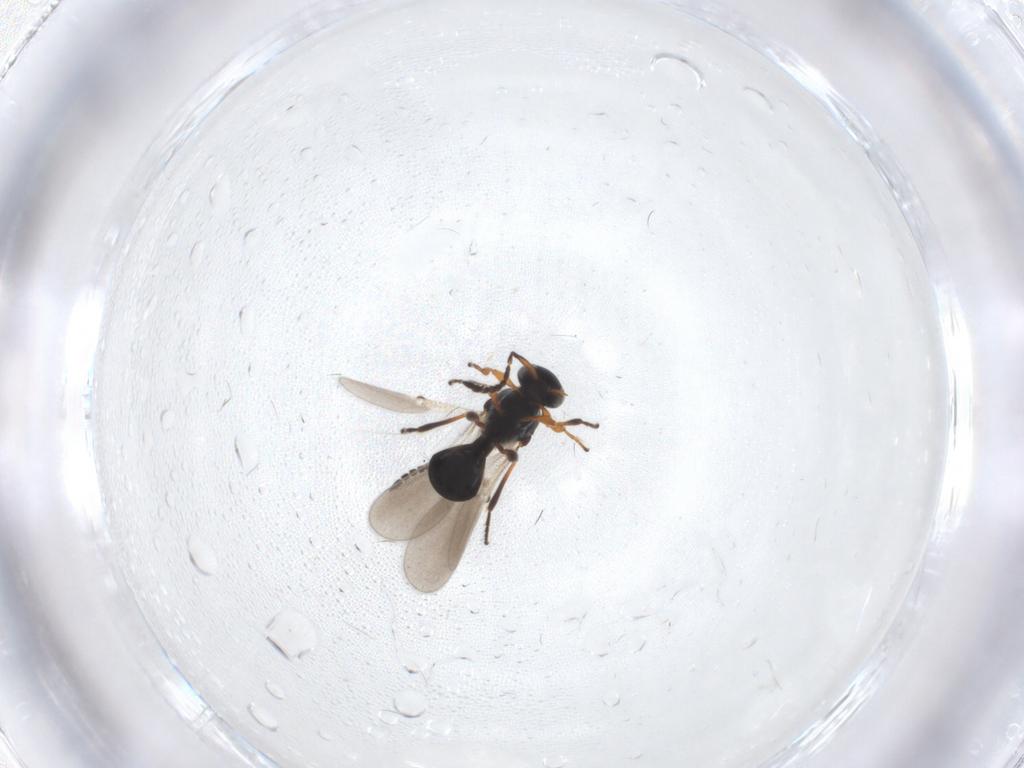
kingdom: Animalia
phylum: Arthropoda
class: Insecta
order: Hymenoptera
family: Platygastridae
